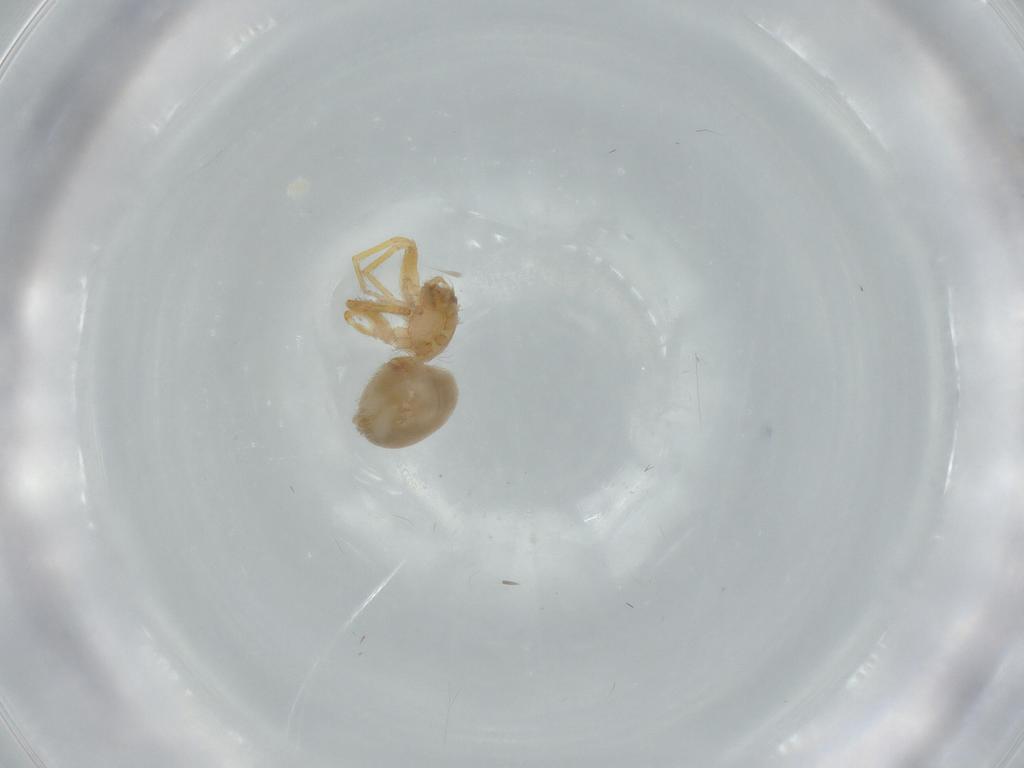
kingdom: Animalia
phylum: Arthropoda
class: Arachnida
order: Araneae
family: Oonopidae
